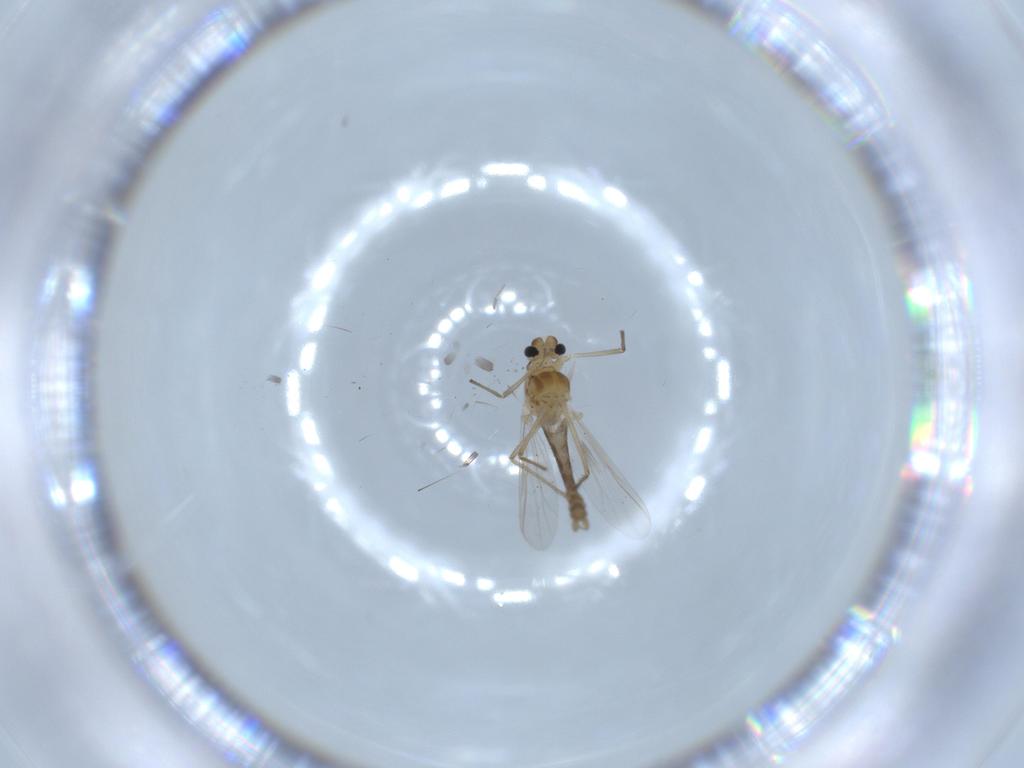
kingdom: Animalia
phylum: Arthropoda
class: Insecta
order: Diptera
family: Chironomidae
